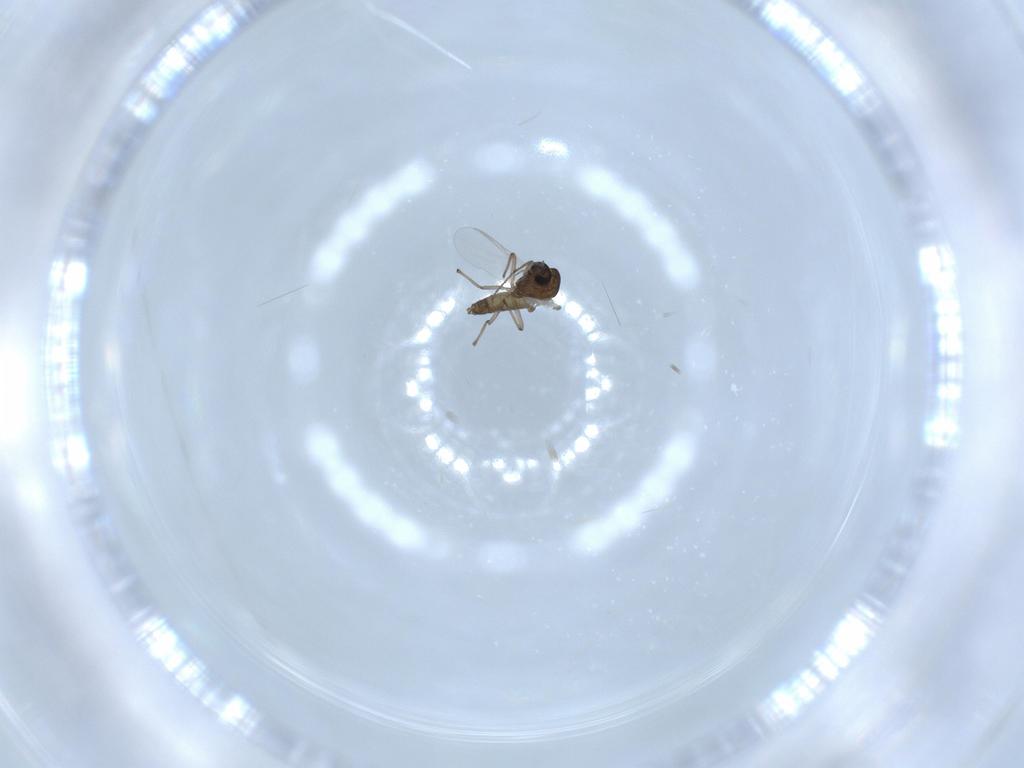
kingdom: Animalia
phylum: Arthropoda
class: Insecta
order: Diptera
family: Chironomidae
